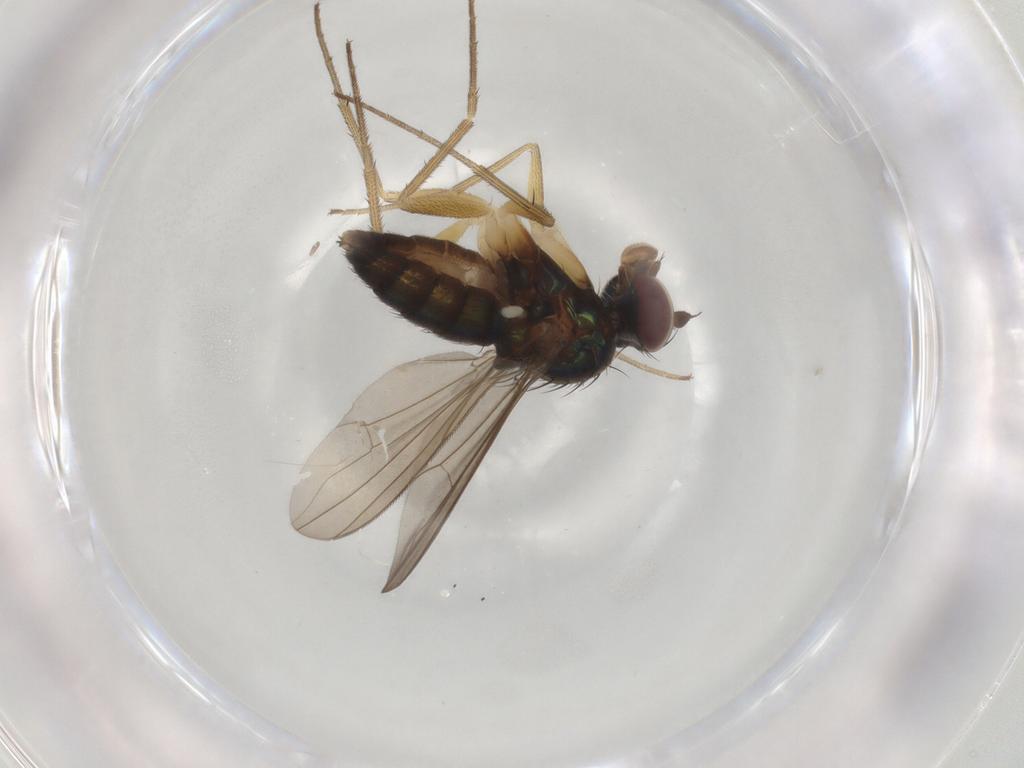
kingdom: Animalia
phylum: Arthropoda
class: Insecta
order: Diptera
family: Dolichopodidae
